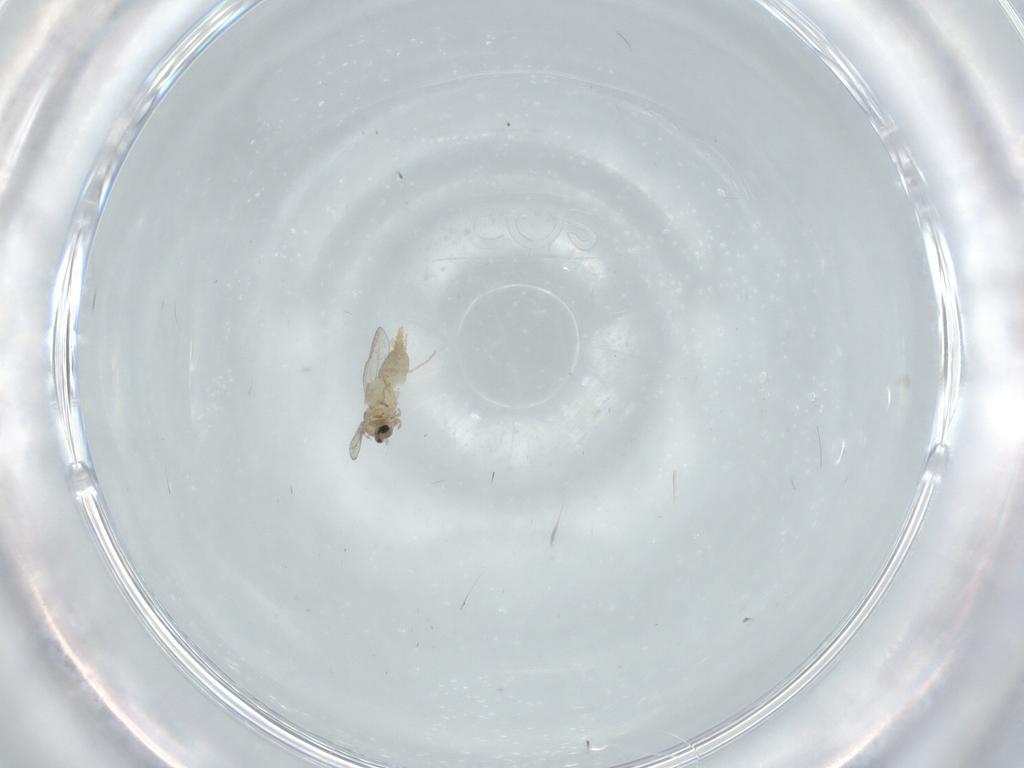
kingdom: Animalia
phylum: Arthropoda
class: Insecta
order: Diptera
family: Cecidomyiidae
